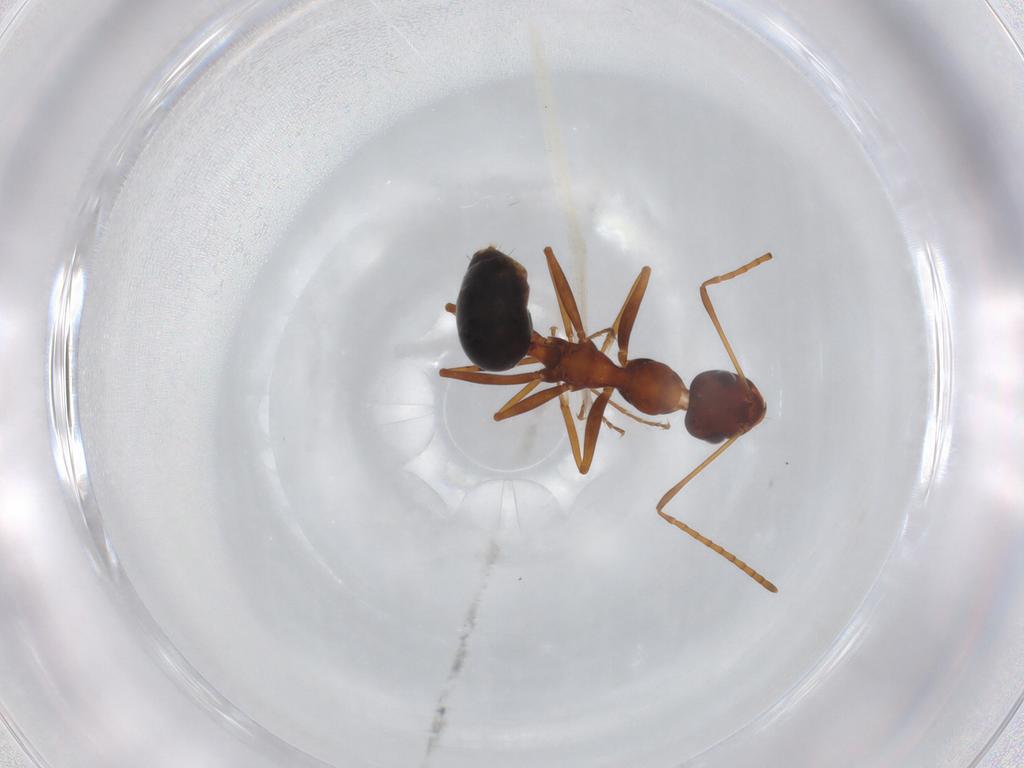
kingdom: Animalia
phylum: Arthropoda
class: Insecta
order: Hymenoptera
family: Formicidae
